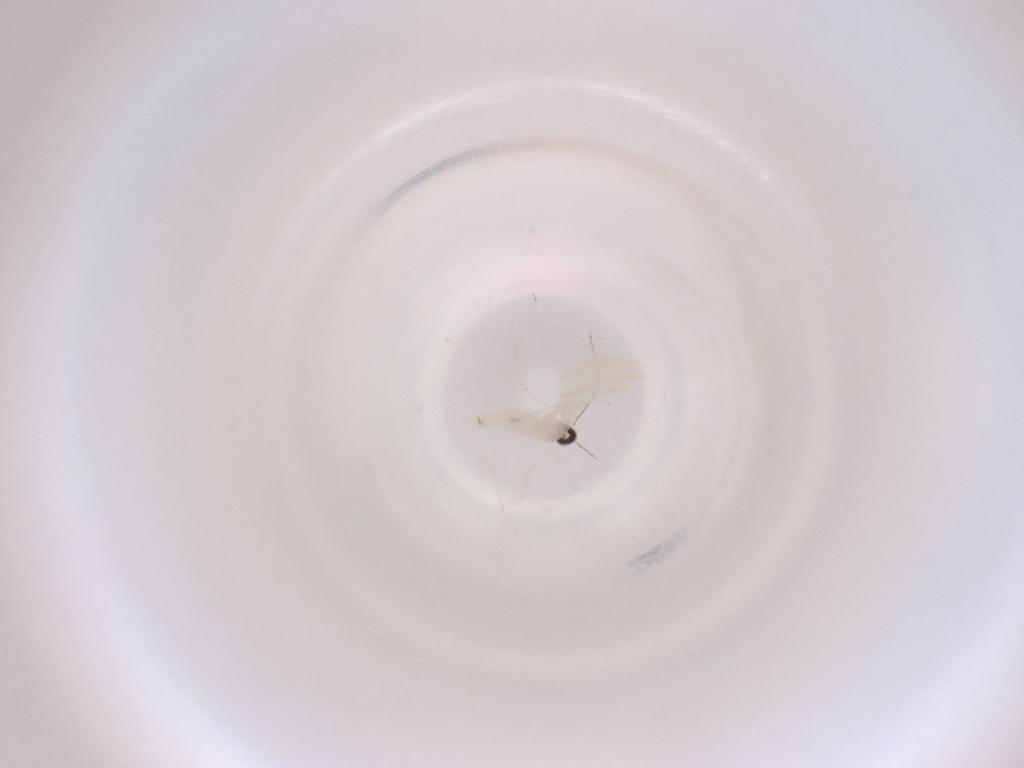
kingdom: Animalia
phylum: Arthropoda
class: Insecta
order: Diptera
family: Cecidomyiidae
